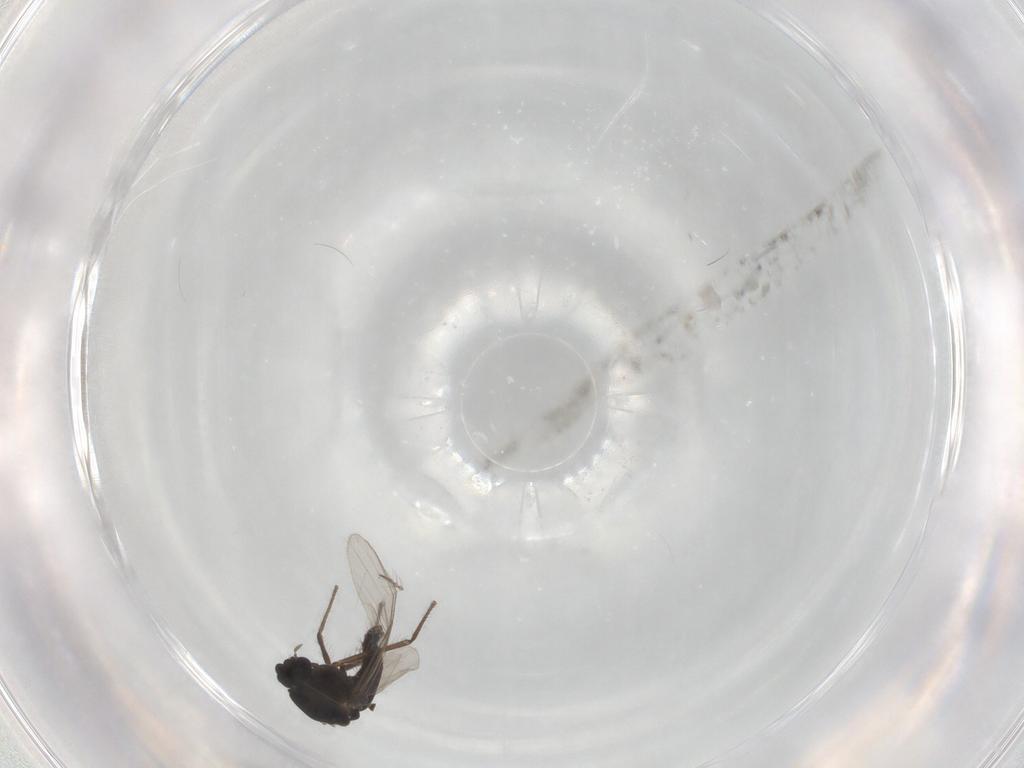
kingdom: Animalia
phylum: Arthropoda
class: Insecta
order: Diptera
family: Chironomidae
